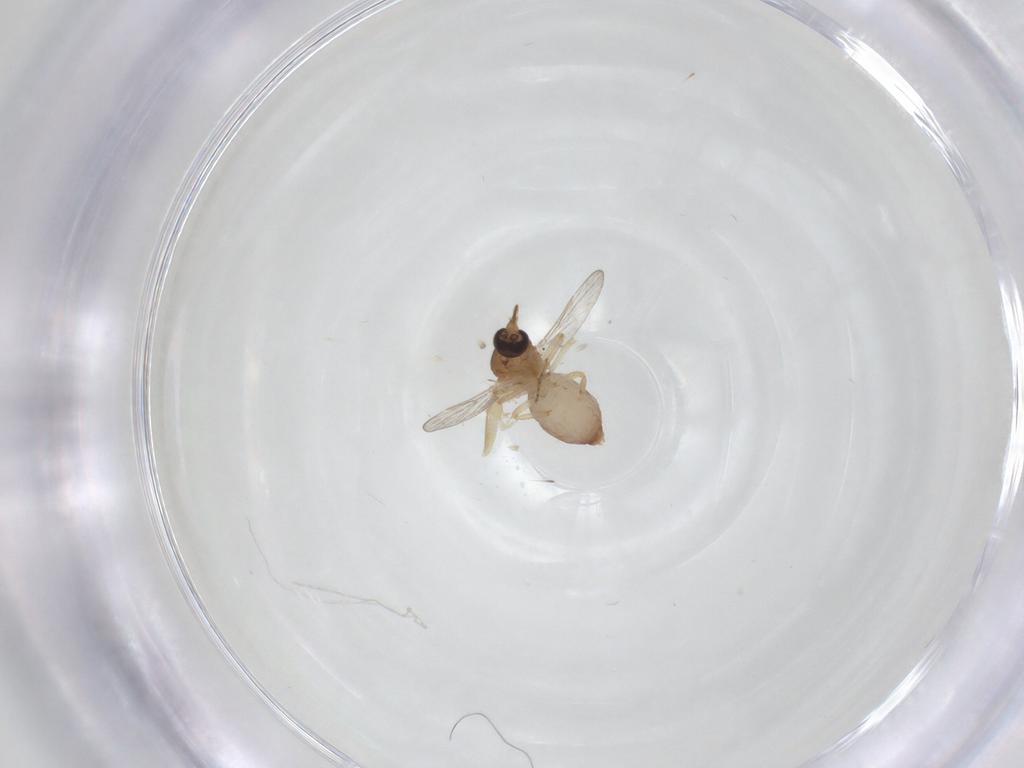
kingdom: Animalia
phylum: Arthropoda
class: Insecta
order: Diptera
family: Ceratopogonidae
